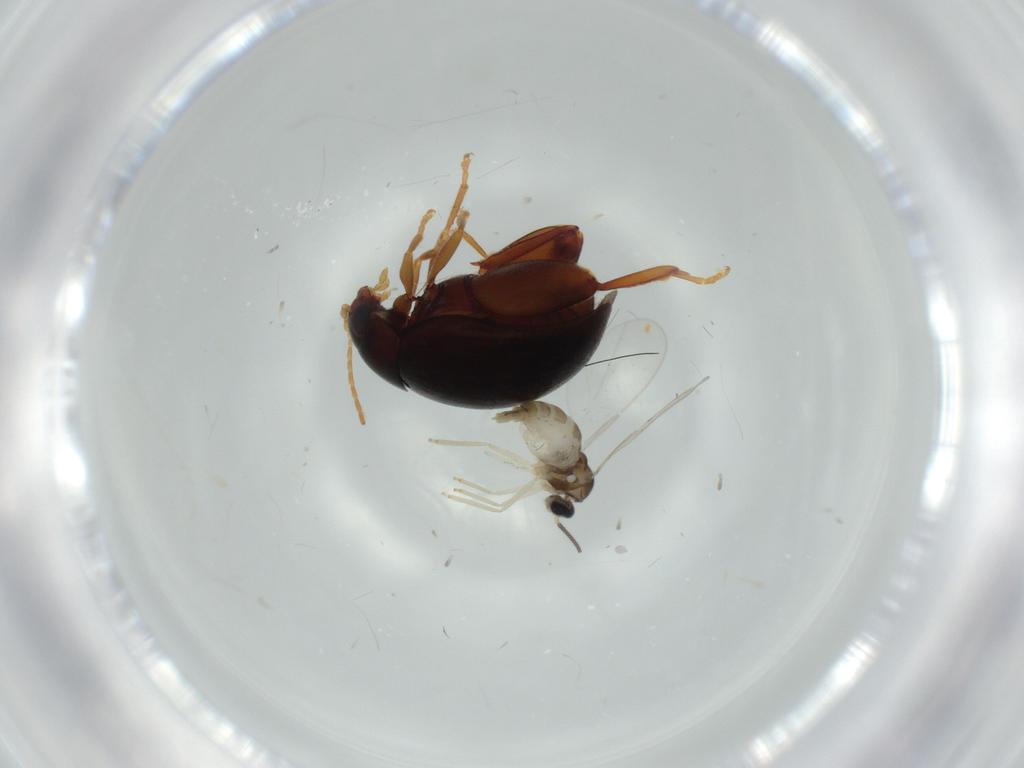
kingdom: Animalia
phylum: Arthropoda
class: Insecta
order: Coleoptera
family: Chrysomelidae
